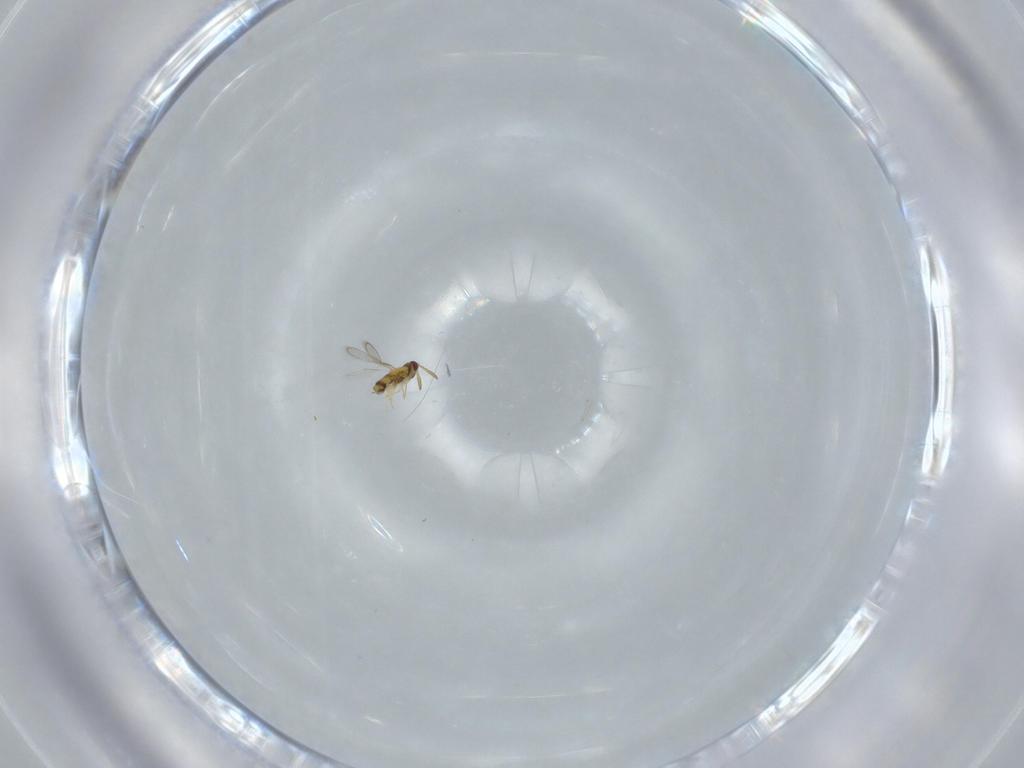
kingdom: Animalia
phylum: Arthropoda
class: Insecta
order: Hymenoptera
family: Aphelinidae
